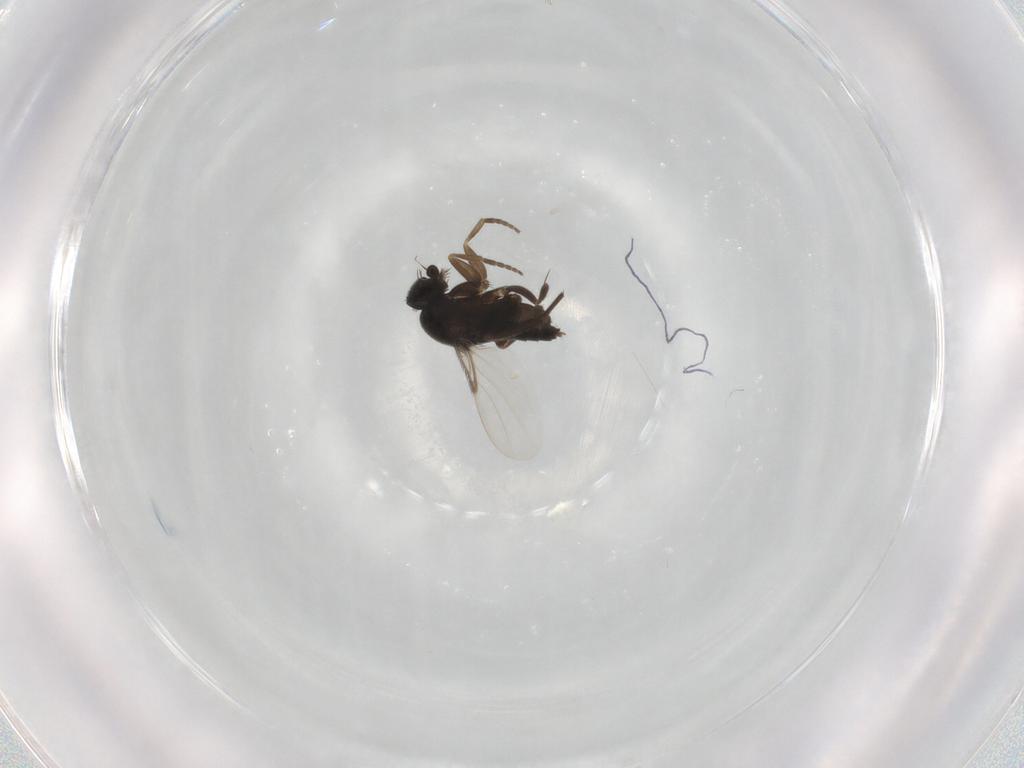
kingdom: Animalia
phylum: Arthropoda
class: Insecta
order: Diptera
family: Phoridae
